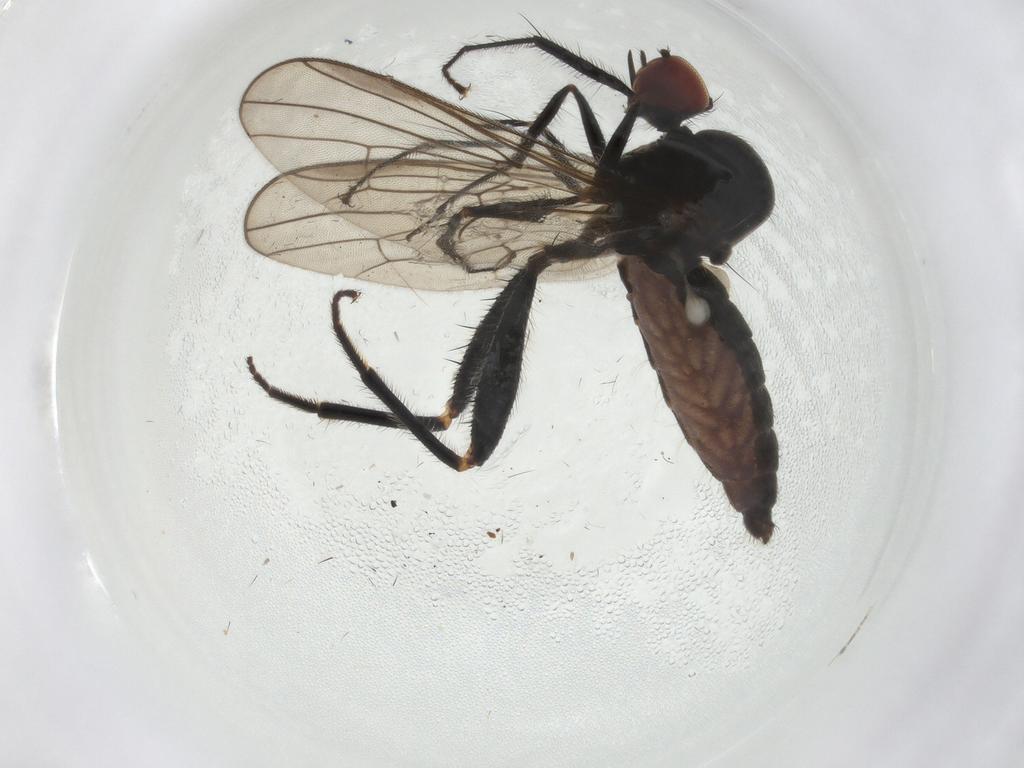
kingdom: Animalia
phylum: Arthropoda
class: Insecta
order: Diptera
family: Hybotidae
